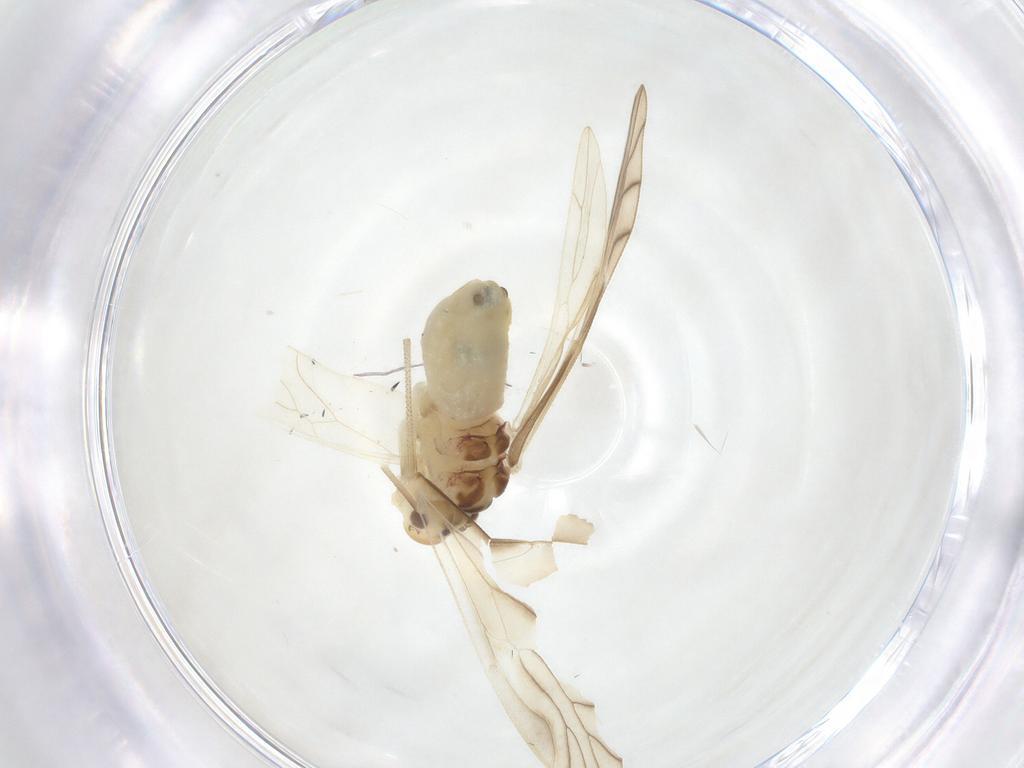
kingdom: Animalia
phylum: Arthropoda
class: Insecta
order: Psocodea
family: Caeciliusidae
